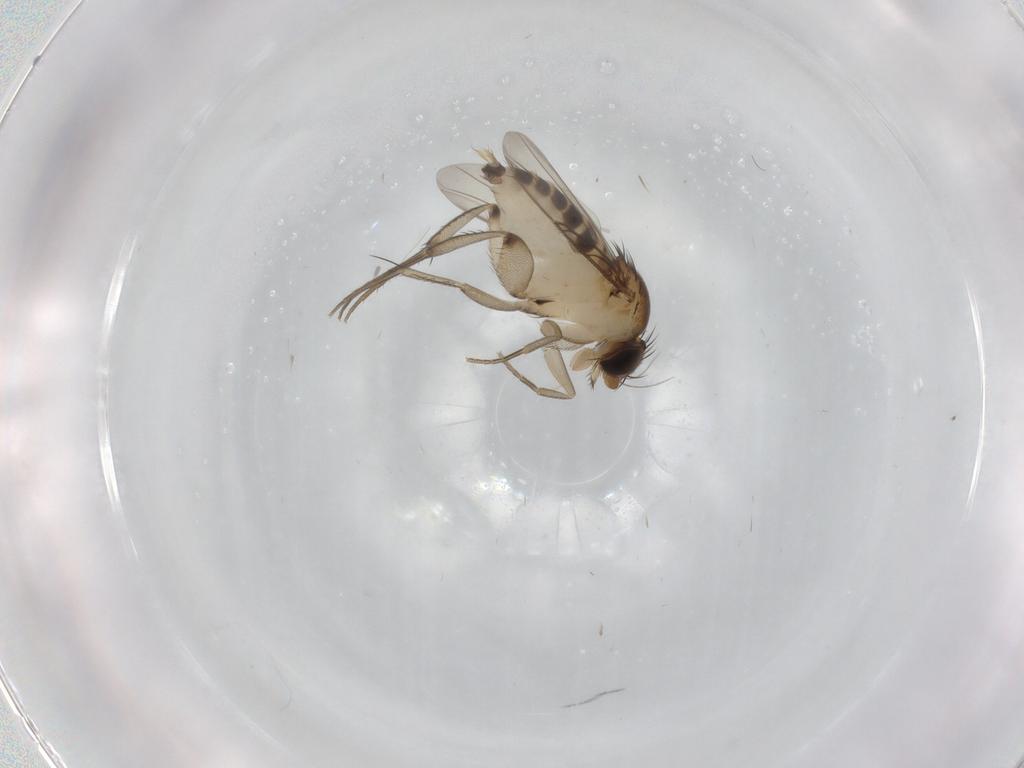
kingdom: Animalia
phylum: Arthropoda
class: Insecta
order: Diptera
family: Phoridae
